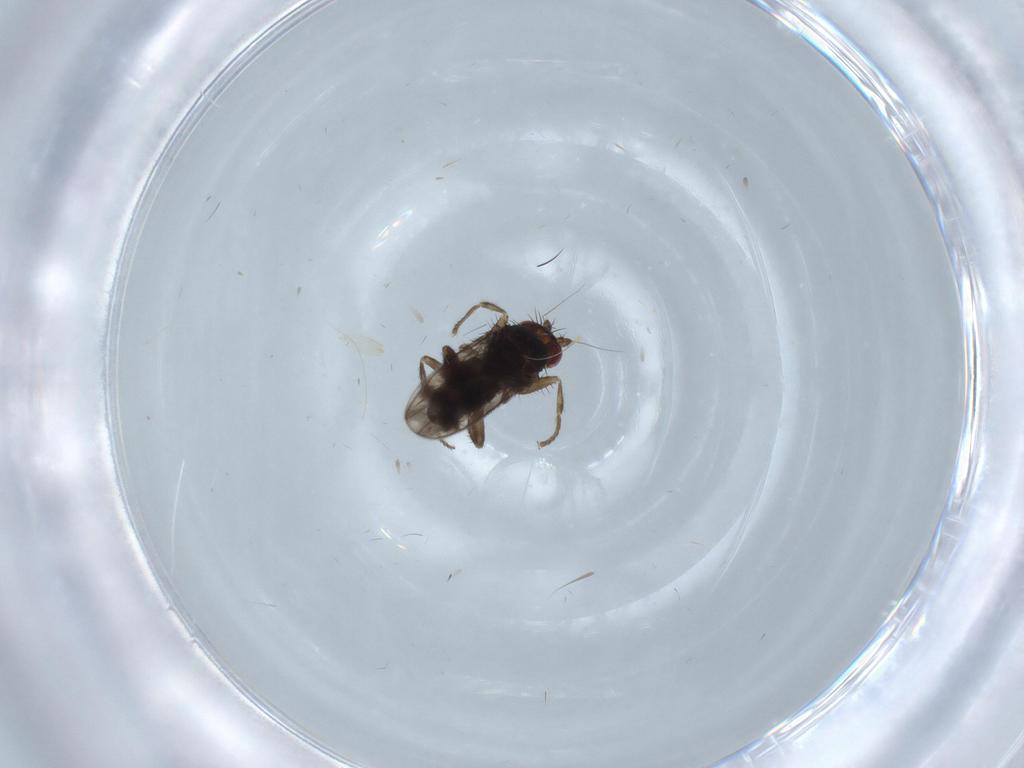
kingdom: Animalia
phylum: Arthropoda
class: Insecta
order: Diptera
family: Sphaeroceridae
